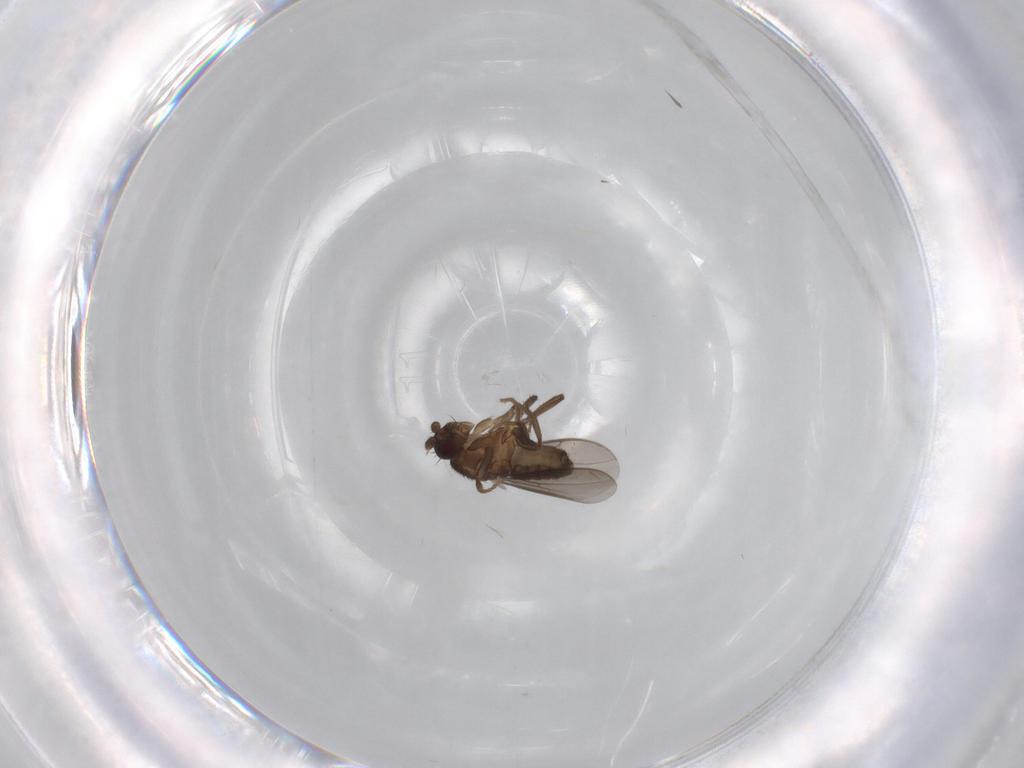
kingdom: Animalia
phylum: Arthropoda
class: Insecta
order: Diptera
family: Sphaeroceridae
